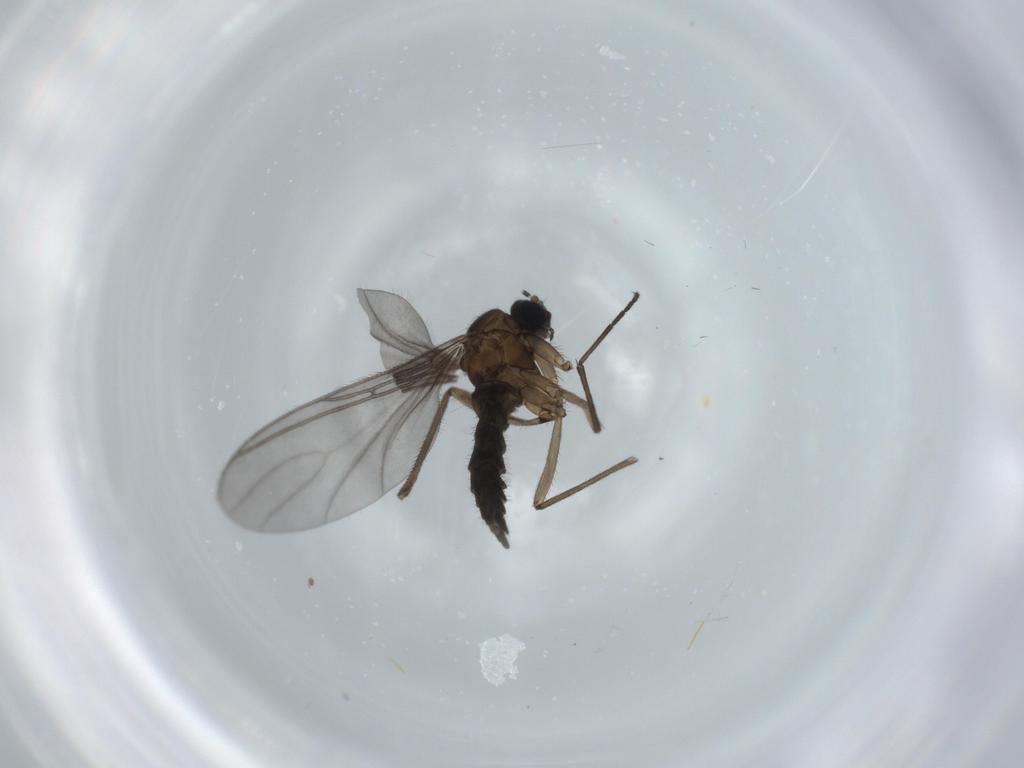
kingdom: Animalia
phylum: Arthropoda
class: Insecta
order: Diptera
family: Sciaridae
